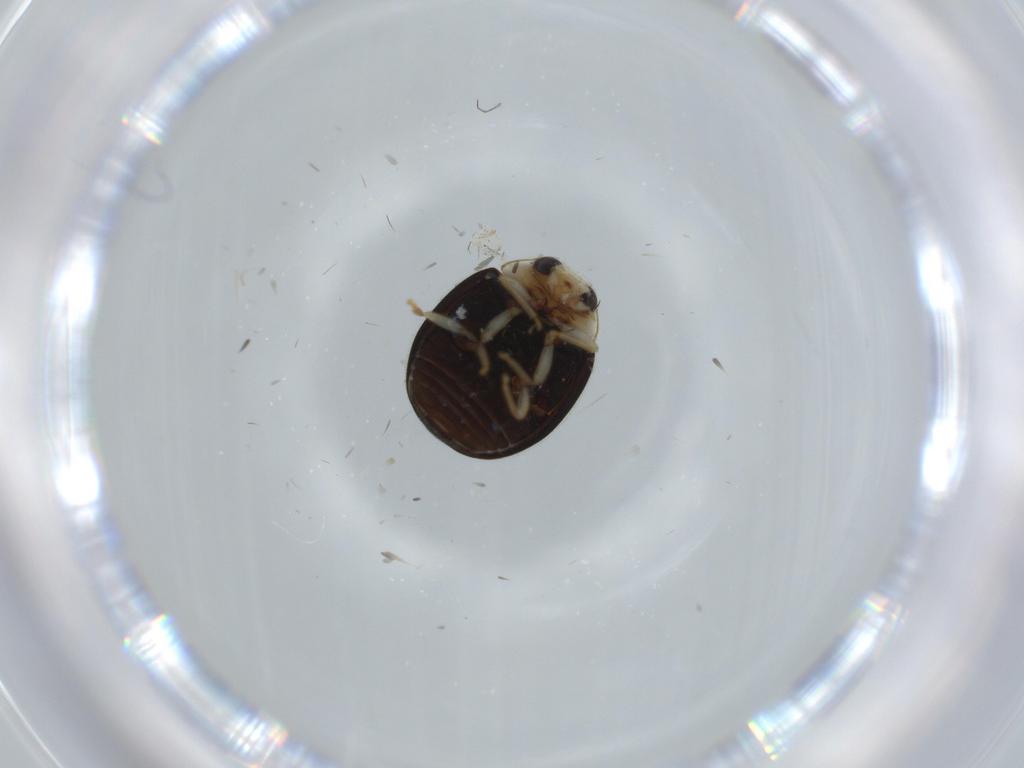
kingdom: Animalia
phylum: Arthropoda
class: Insecta
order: Coleoptera
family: Coccinellidae
